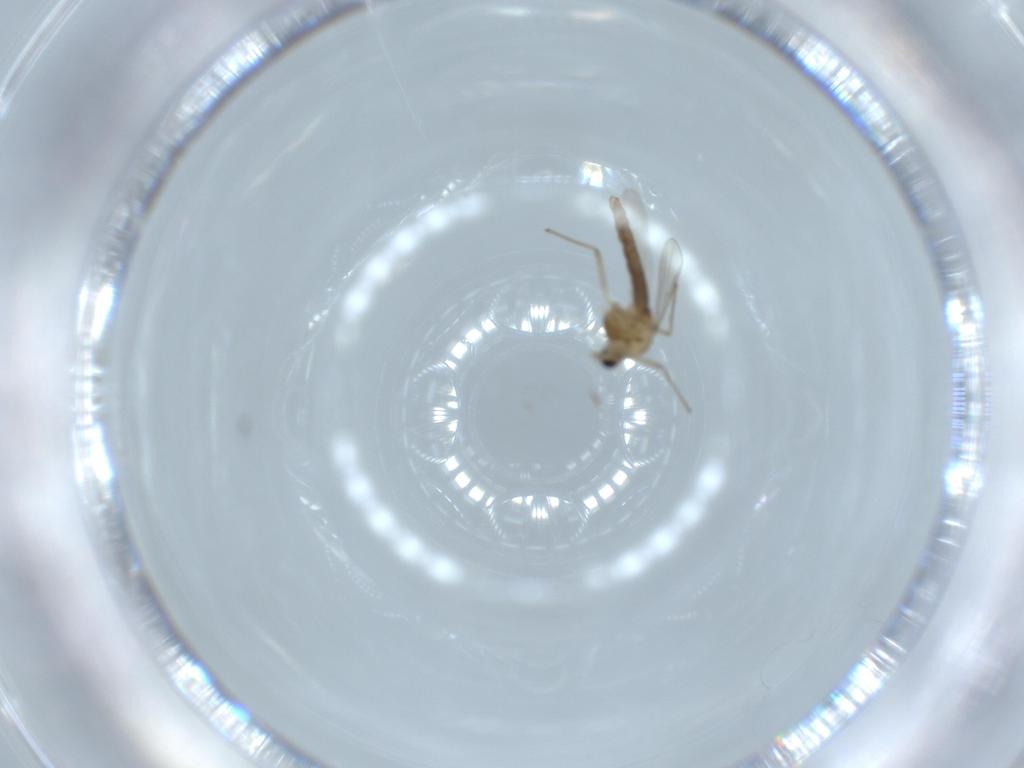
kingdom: Animalia
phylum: Arthropoda
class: Insecta
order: Diptera
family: Chironomidae
